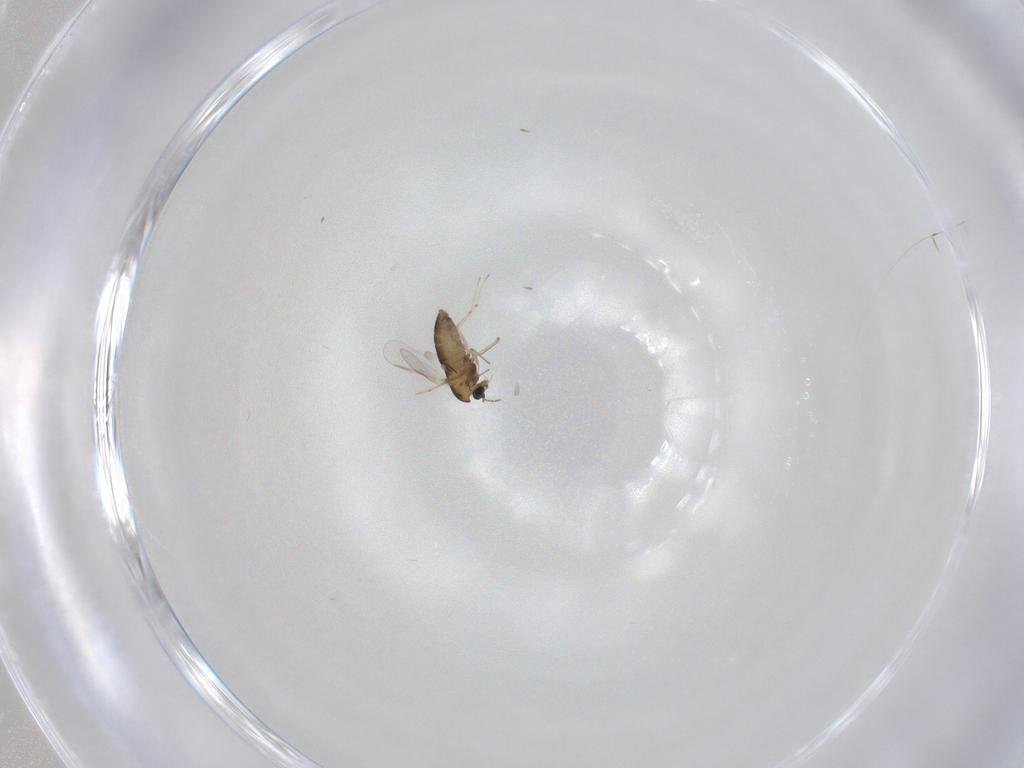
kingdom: Animalia
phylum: Arthropoda
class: Insecta
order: Diptera
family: Chironomidae
